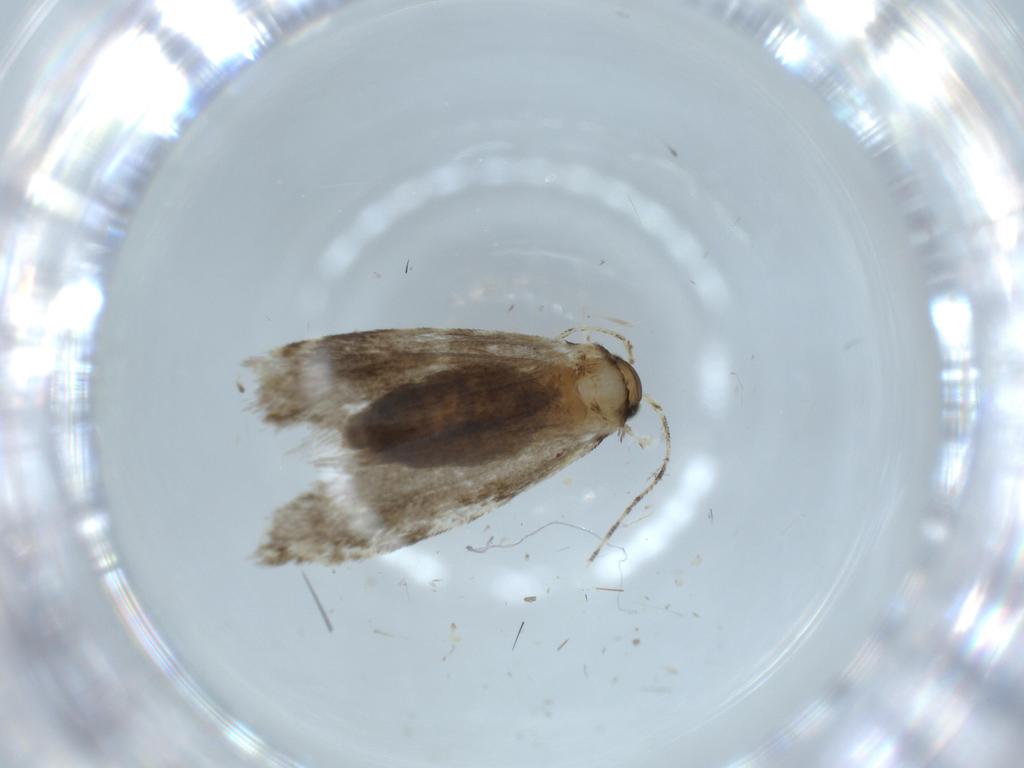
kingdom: Animalia
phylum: Arthropoda
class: Insecta
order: Lepidoptera
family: Tineidae
